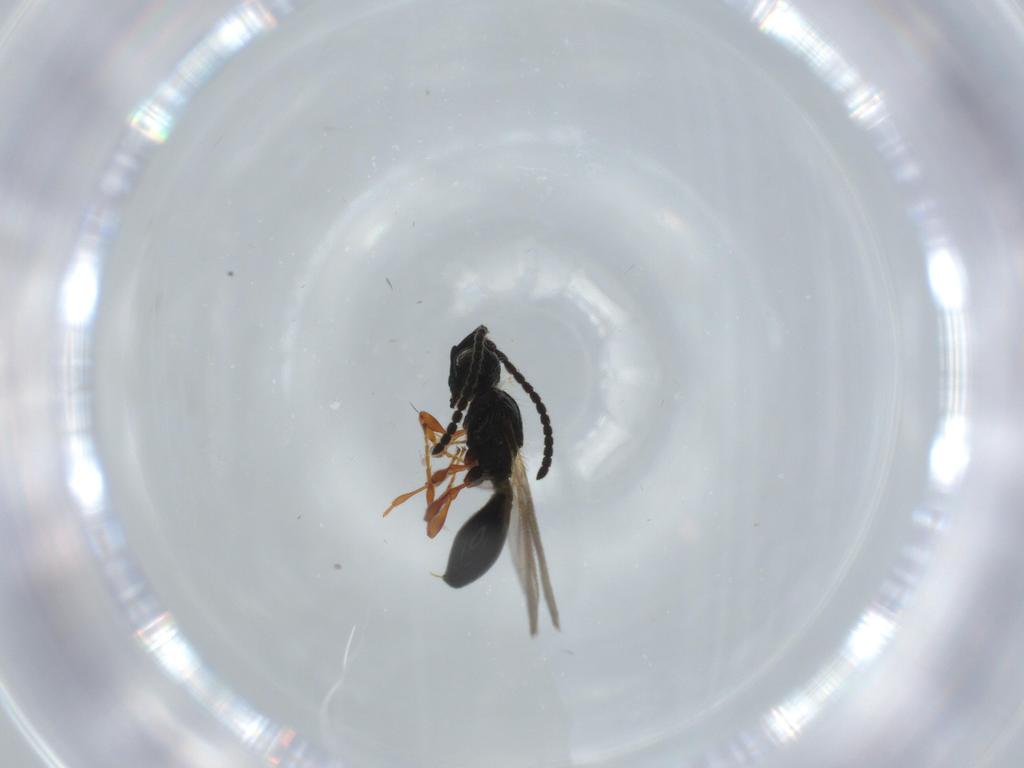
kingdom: Animalia
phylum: Arthropoda
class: Insecta
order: Hymenoptera
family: Diapriidae
